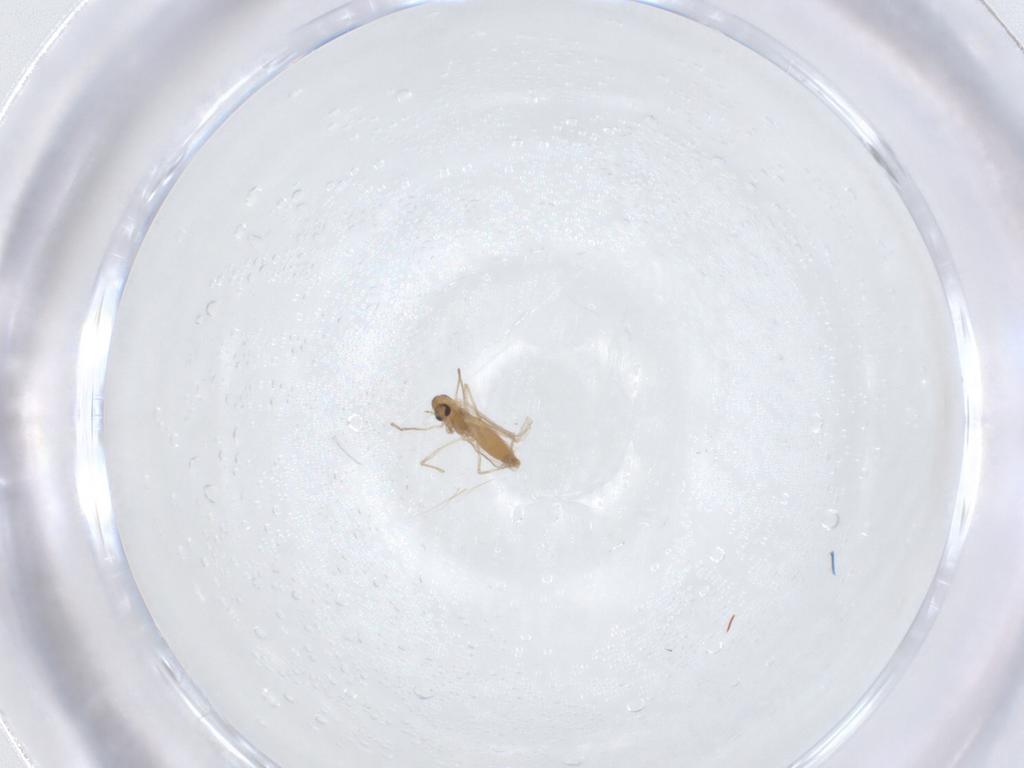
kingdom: Animalia
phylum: Arthropoda
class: Insecta
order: Diptera
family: Chironomidae
